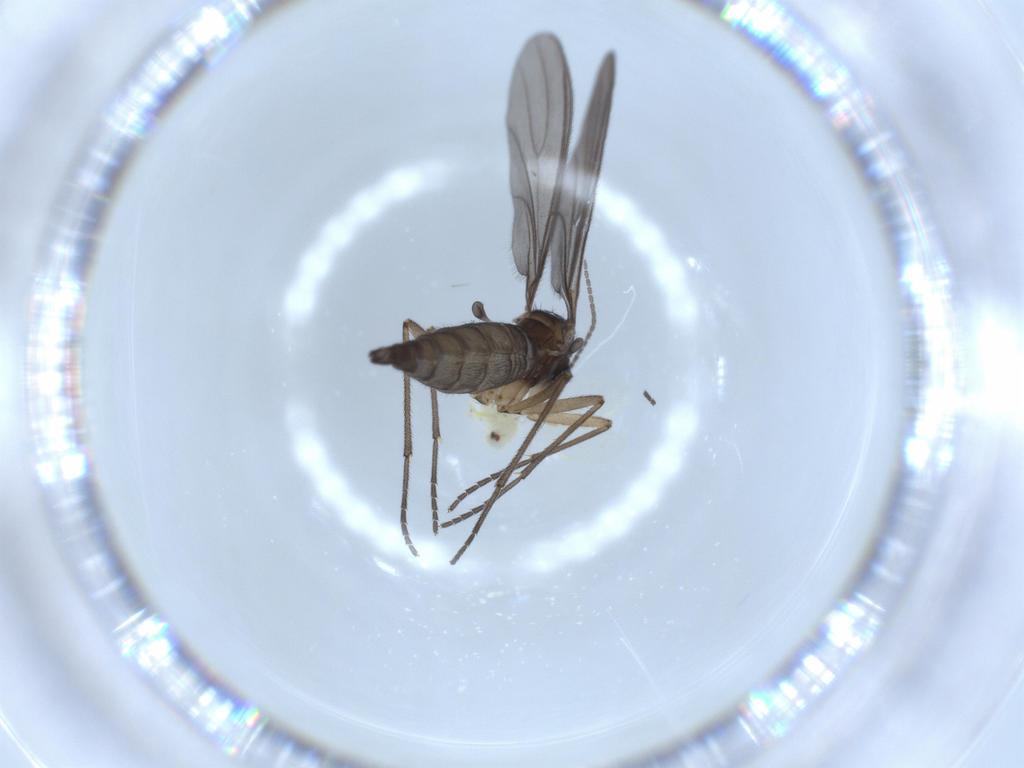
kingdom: Animalia
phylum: Arthropoda
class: Insecta
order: Diptera
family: Sciaridae
